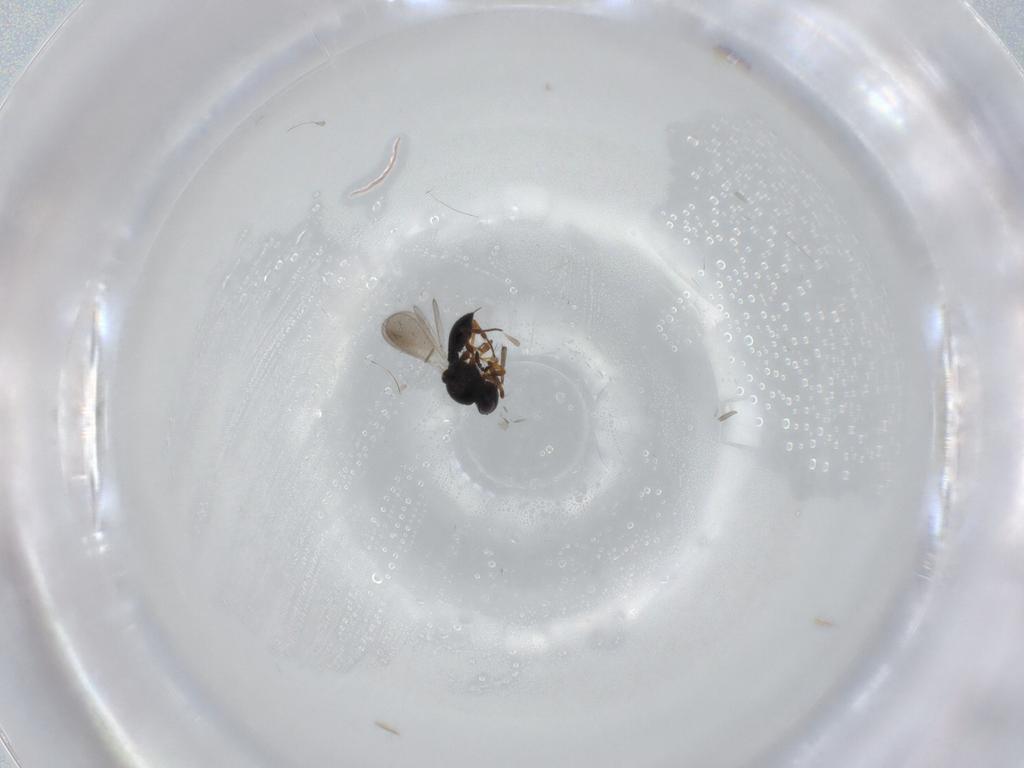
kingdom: Animalia
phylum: Arthropoda
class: Insecta
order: Hymenoptera
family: Platygastridae
